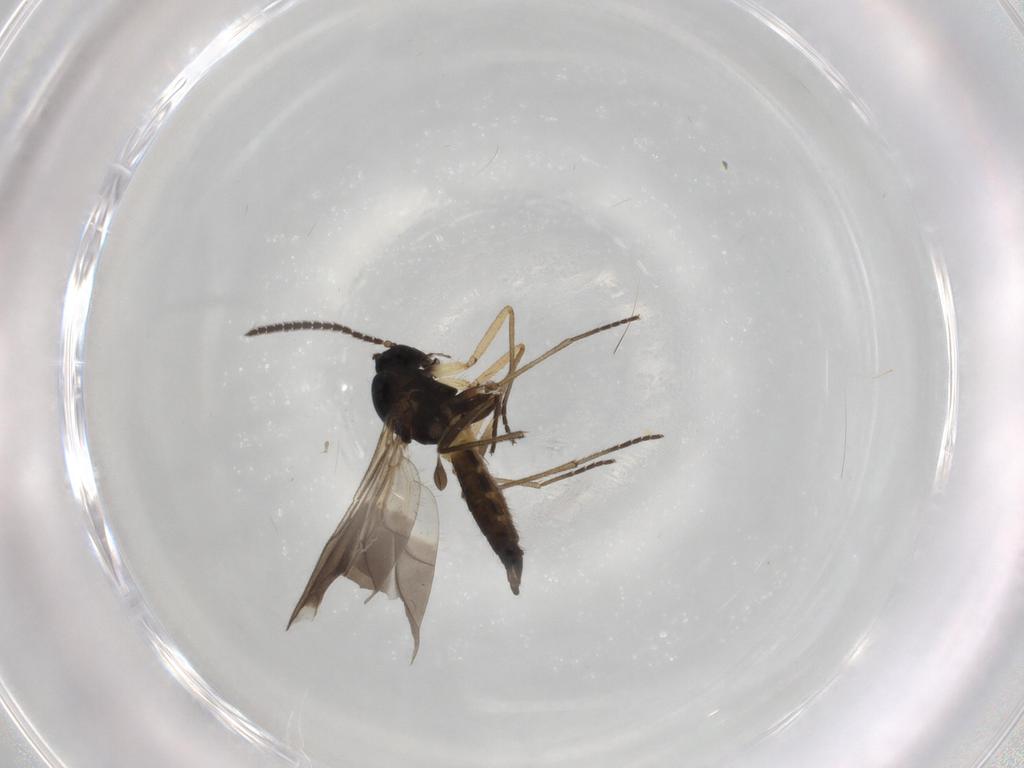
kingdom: Animalia
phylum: Arthropoda
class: Insecta
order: Diptera
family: Sciaridae
